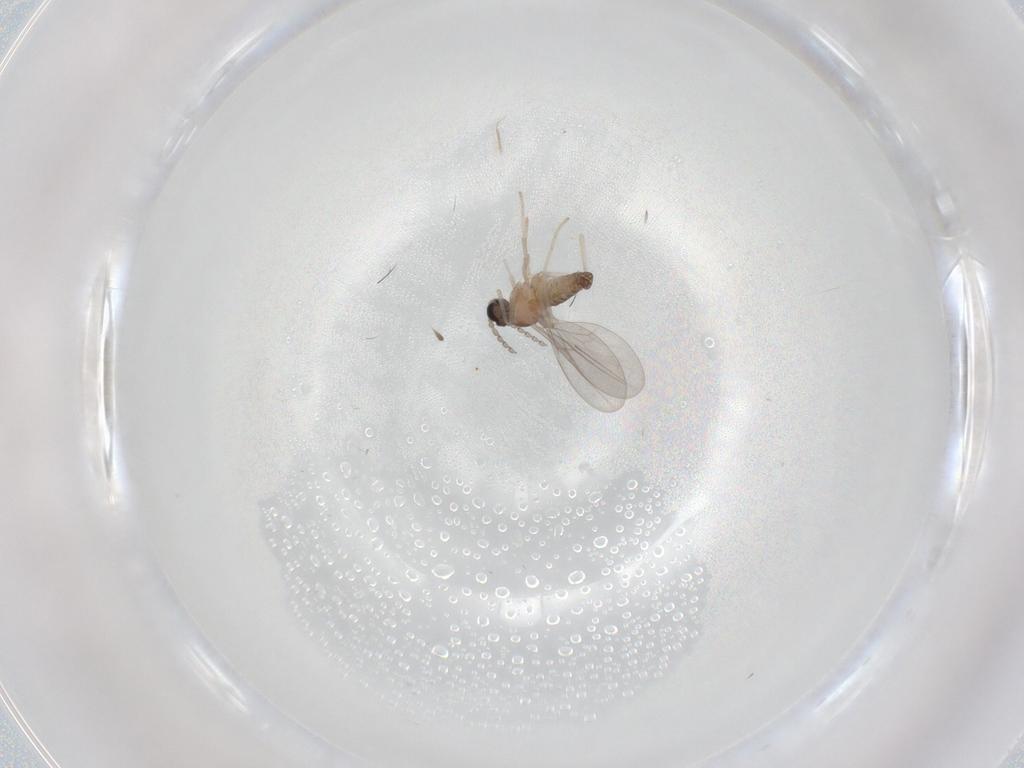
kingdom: Animalia
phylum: Arthropoda
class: Insecta
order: Diptera
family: Cecidomyiidae
